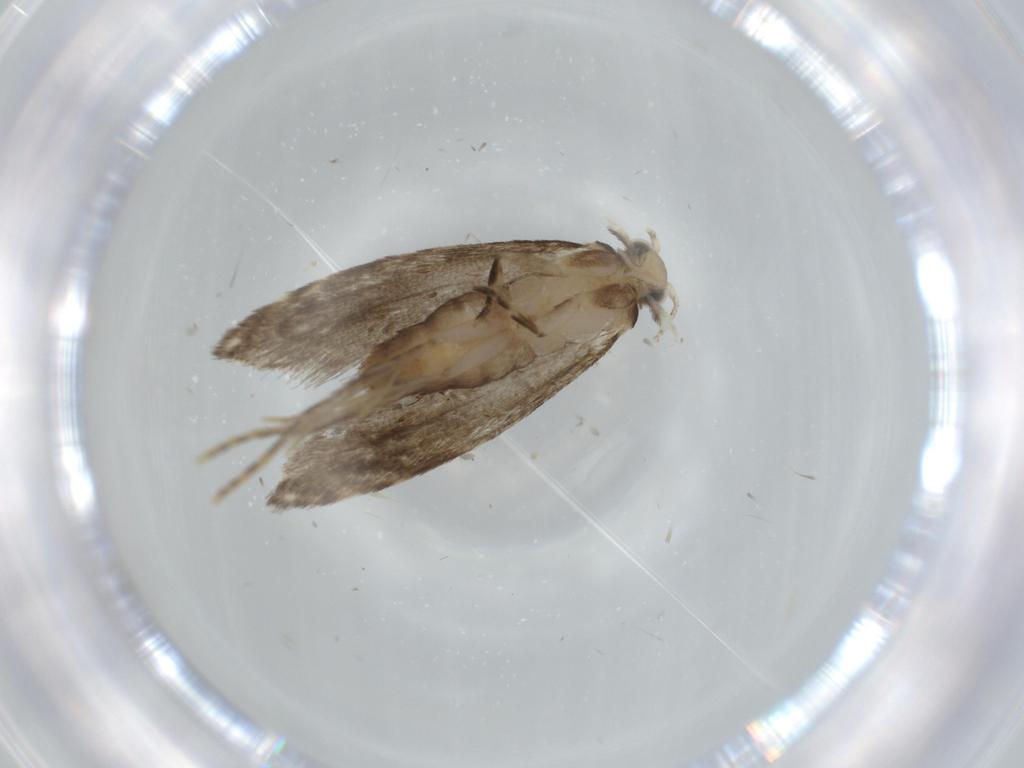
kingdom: Animalia
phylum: Arthropoda
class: Insecta
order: Lepidoptera
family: Tineidae
